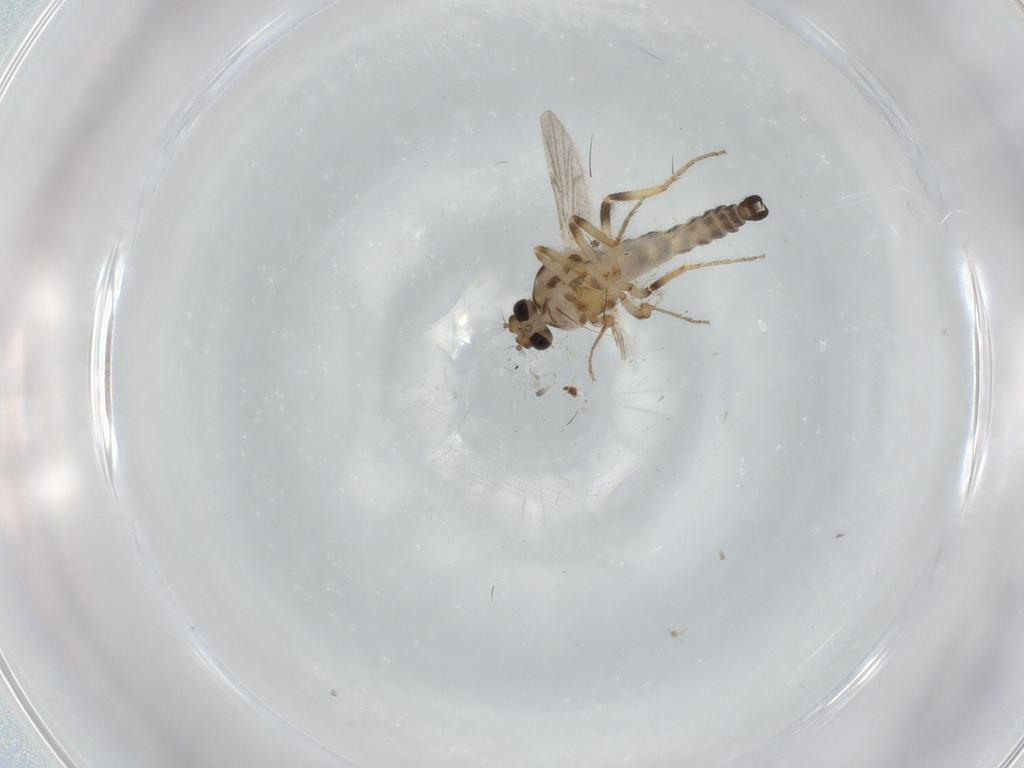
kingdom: Animalia
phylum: Arthropoda
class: Insecta
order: Diptera
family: Ceratopogonidae
